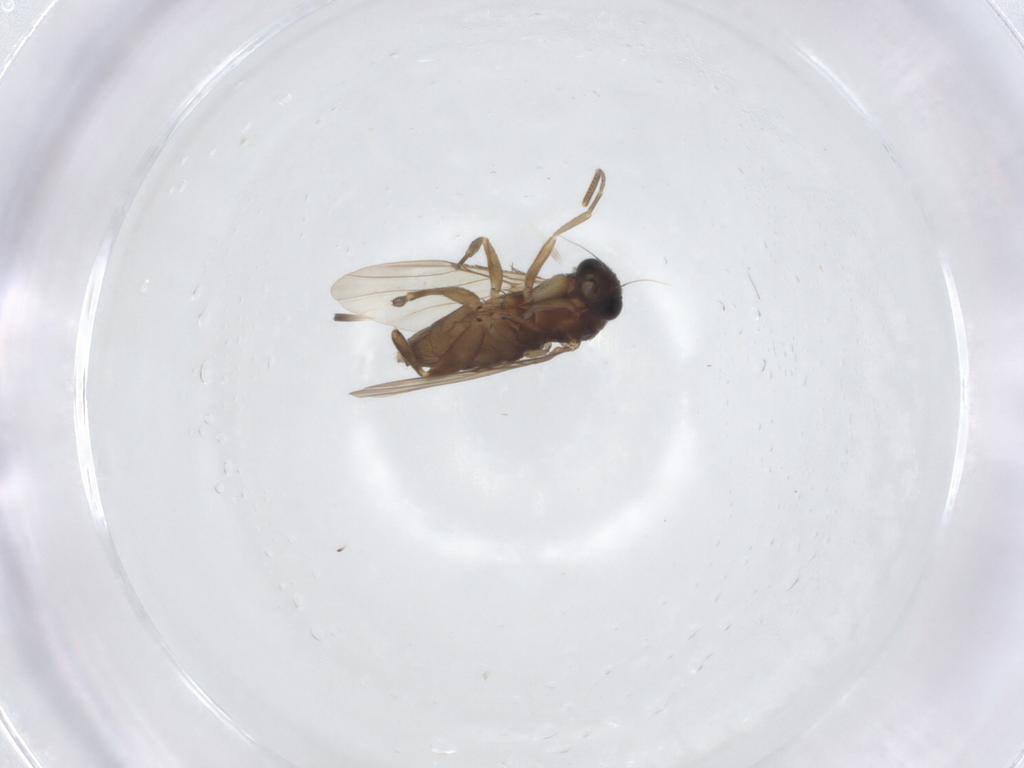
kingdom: Animalia
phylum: Arthropoda
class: Insecta
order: Diptera
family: Phoridae
